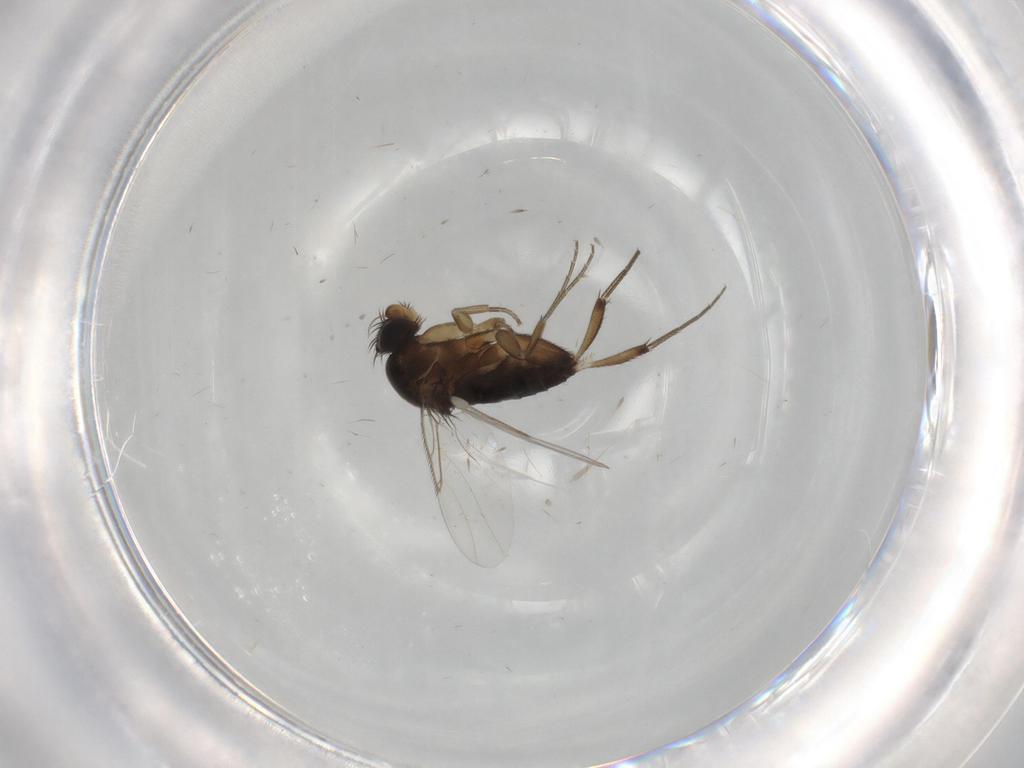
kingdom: Animalia
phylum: Arthropoda
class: Insecta
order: Diptera
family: Phoridae
